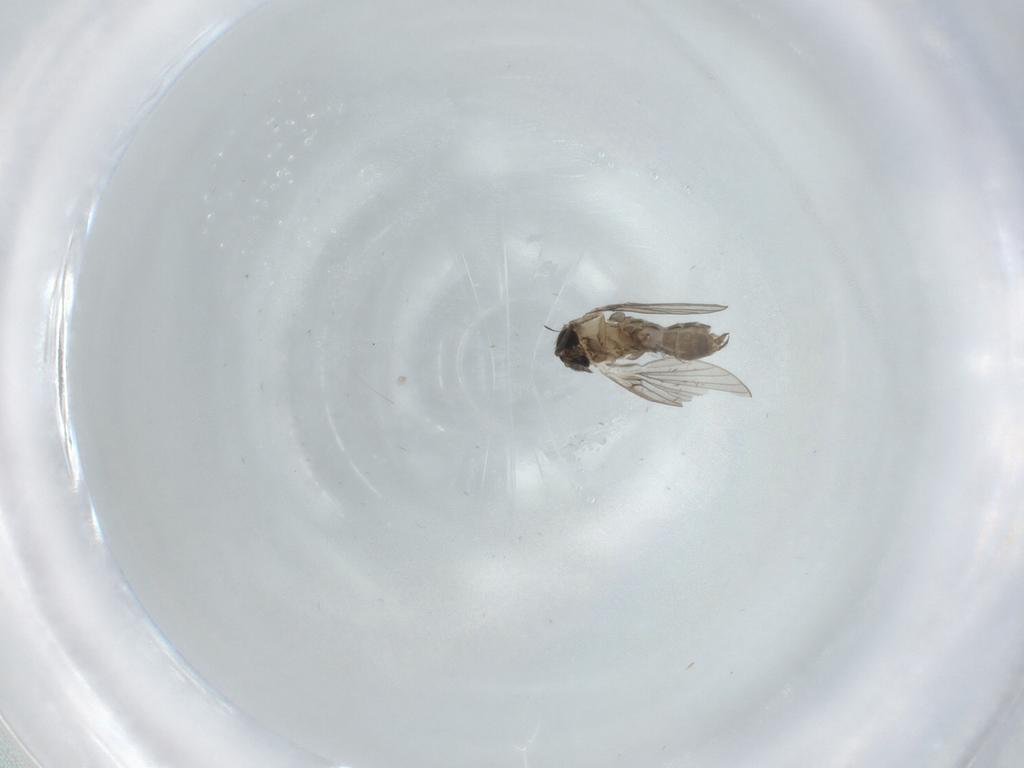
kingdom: Animalia
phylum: Arthropoda
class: Insecta
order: Diptera
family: Psychodidae
